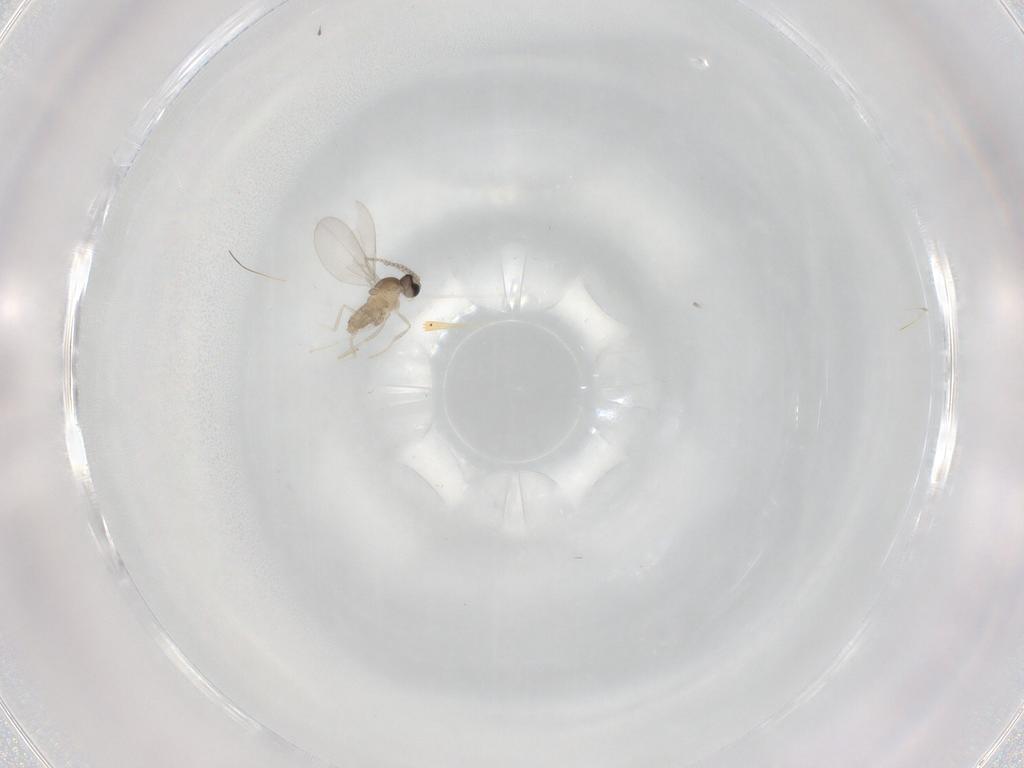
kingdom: Animalia
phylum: Arthropoda
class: Insecta
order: Diptera
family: Cecidomyiidae
